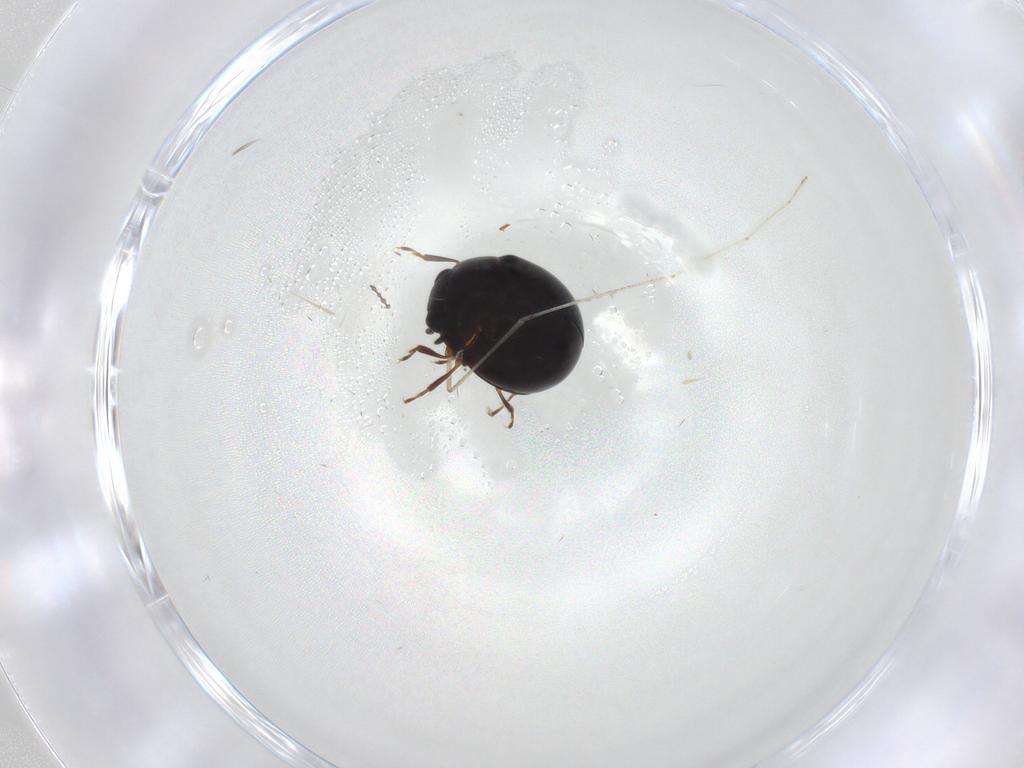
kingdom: Animalia
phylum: Arthropoda
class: Insecta
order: Coleoptera
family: Anamorphidae
